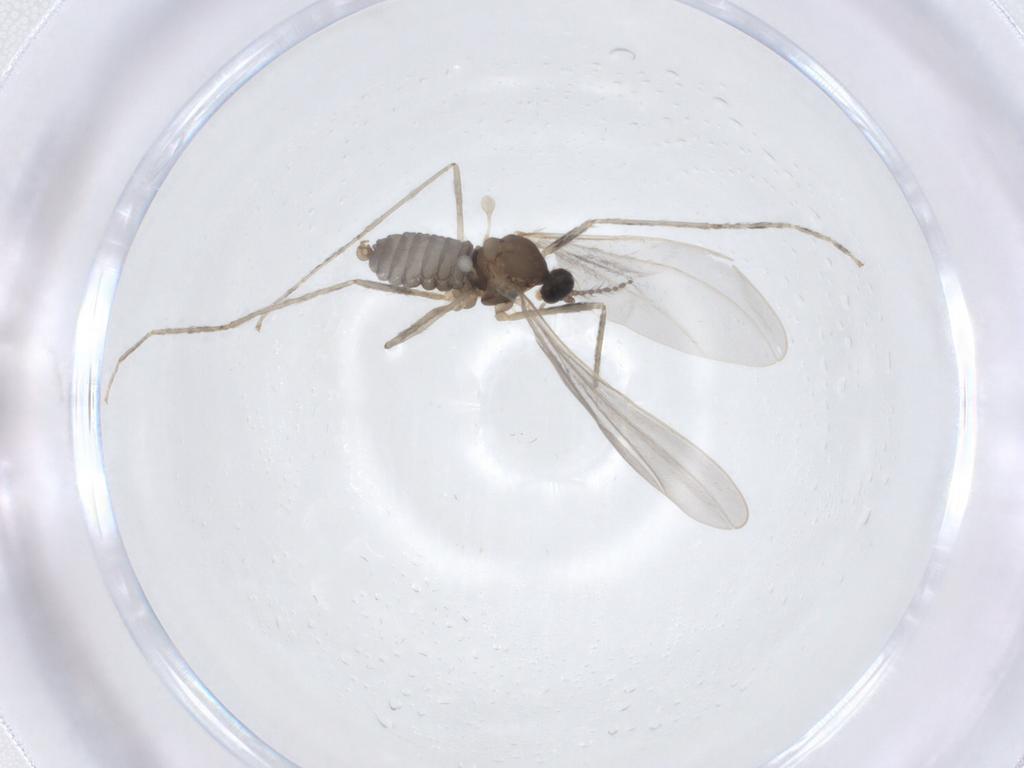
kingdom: Animalia
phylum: Arthropoda
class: Insecta
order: Diptera
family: Cecidomyiidae
